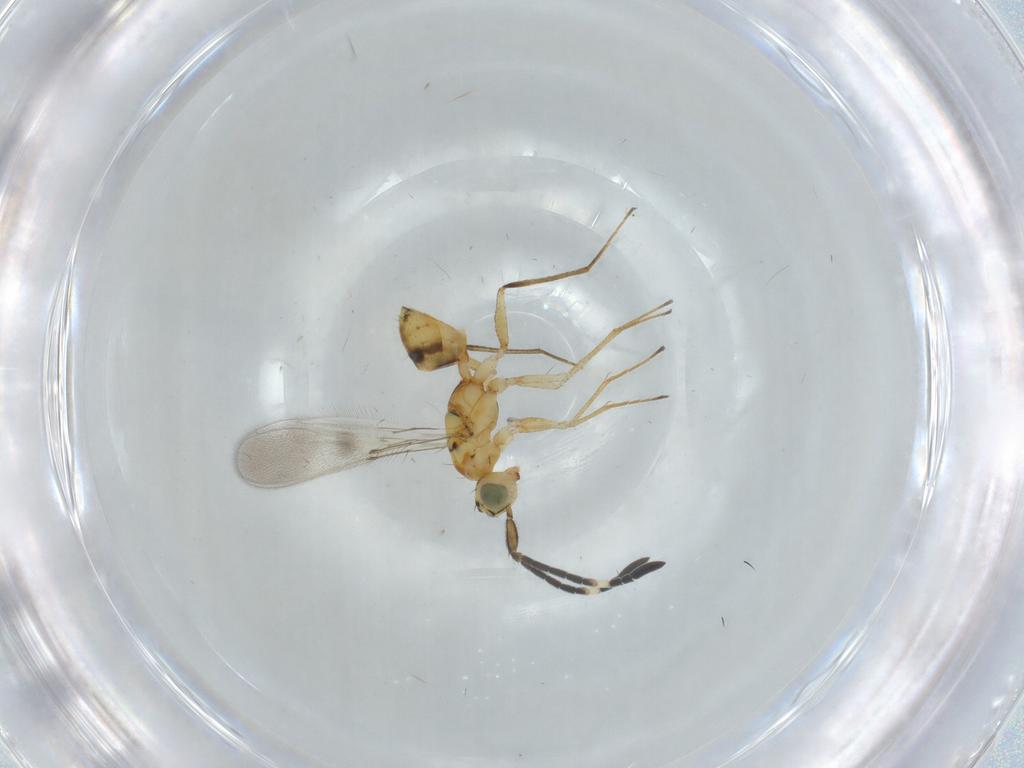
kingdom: Animalia
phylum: Arthropoda
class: Insecta
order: Hymenoptera
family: Mymaridae
